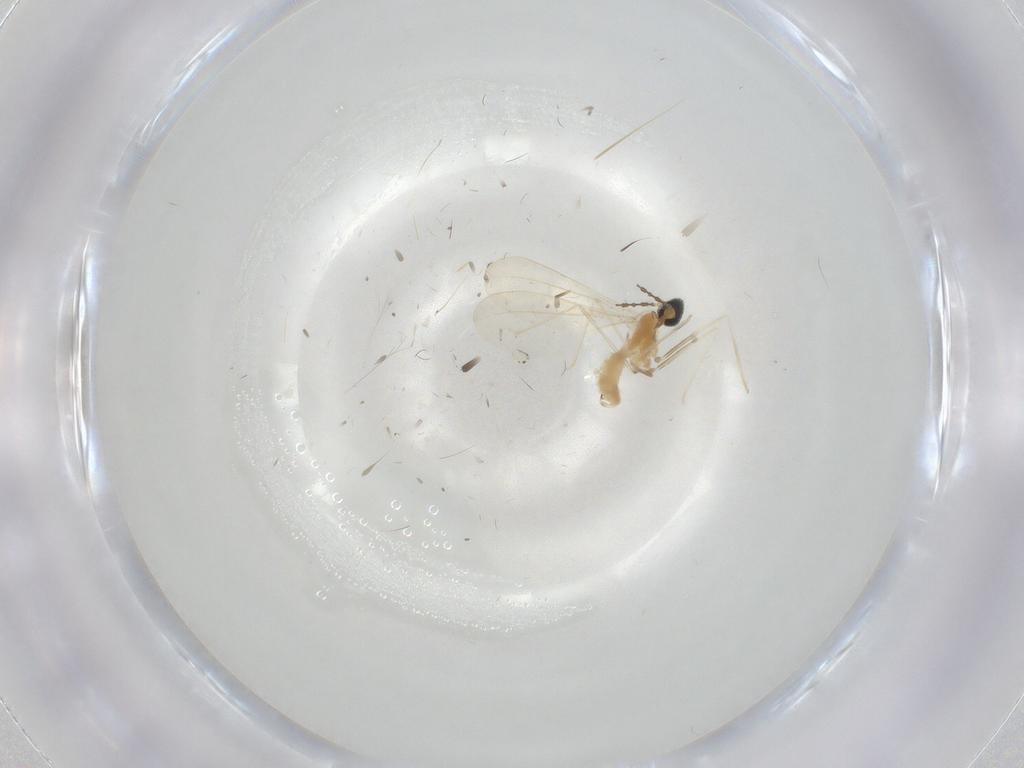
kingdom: Animalia
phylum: Arthropoda
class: Insecta
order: Diptera
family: Cecidomyiidae
